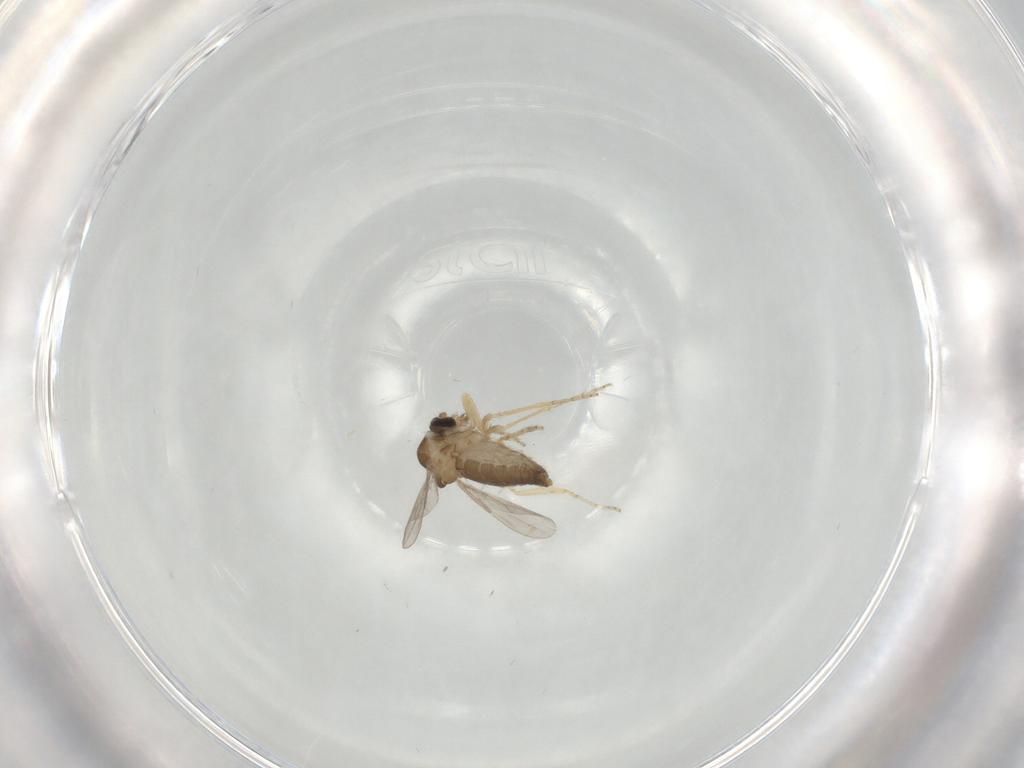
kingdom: Animalia
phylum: Arthropoda
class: Insecta
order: Diptera
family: Ceratopogonidae
